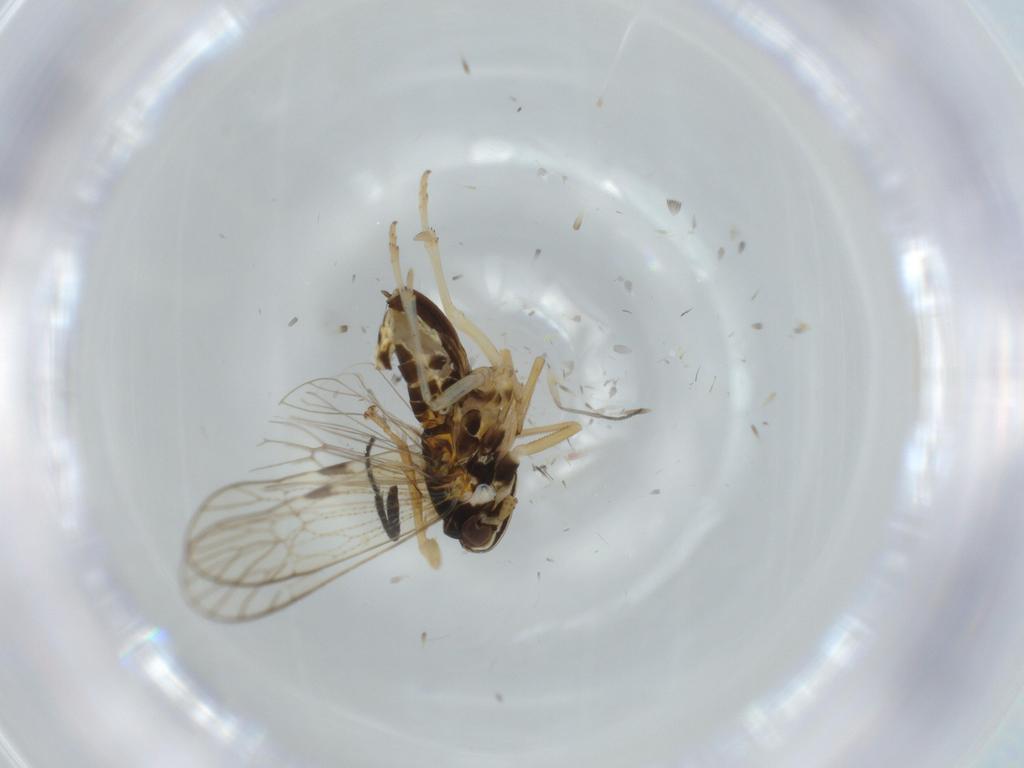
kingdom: Animalia
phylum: Arthropoda
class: Insecta
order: Hemiptera
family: Cicadellidae
